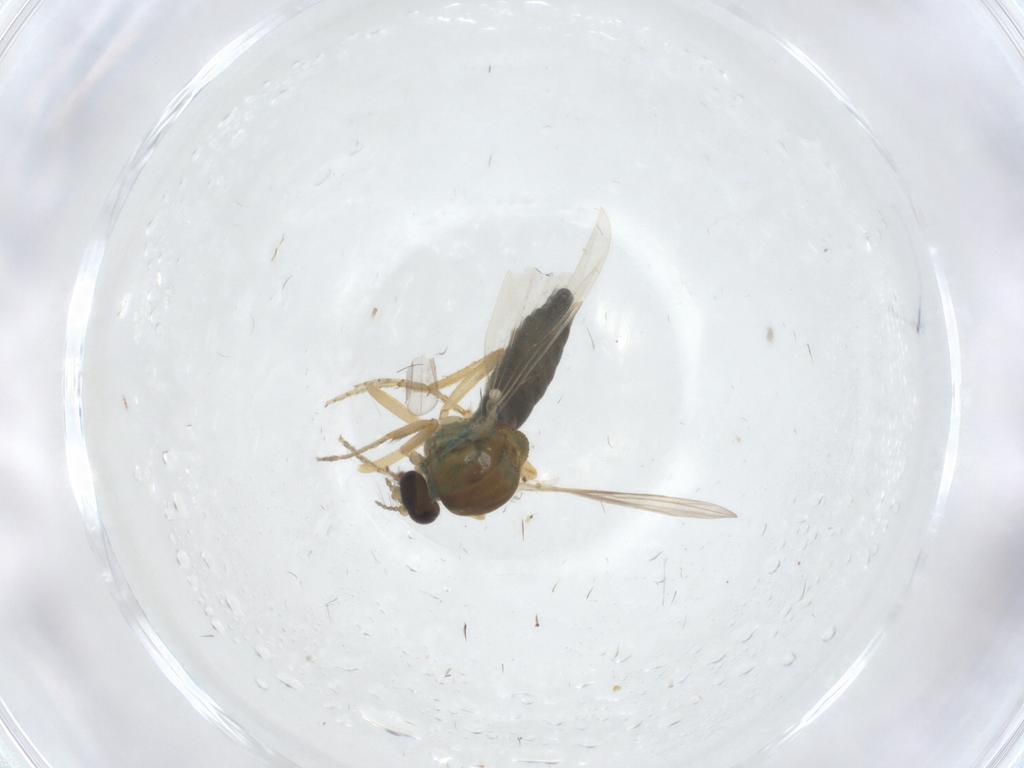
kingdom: Animalia
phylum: Arthropoda
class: Insecta
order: Diptera
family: Ceratopogonidae
